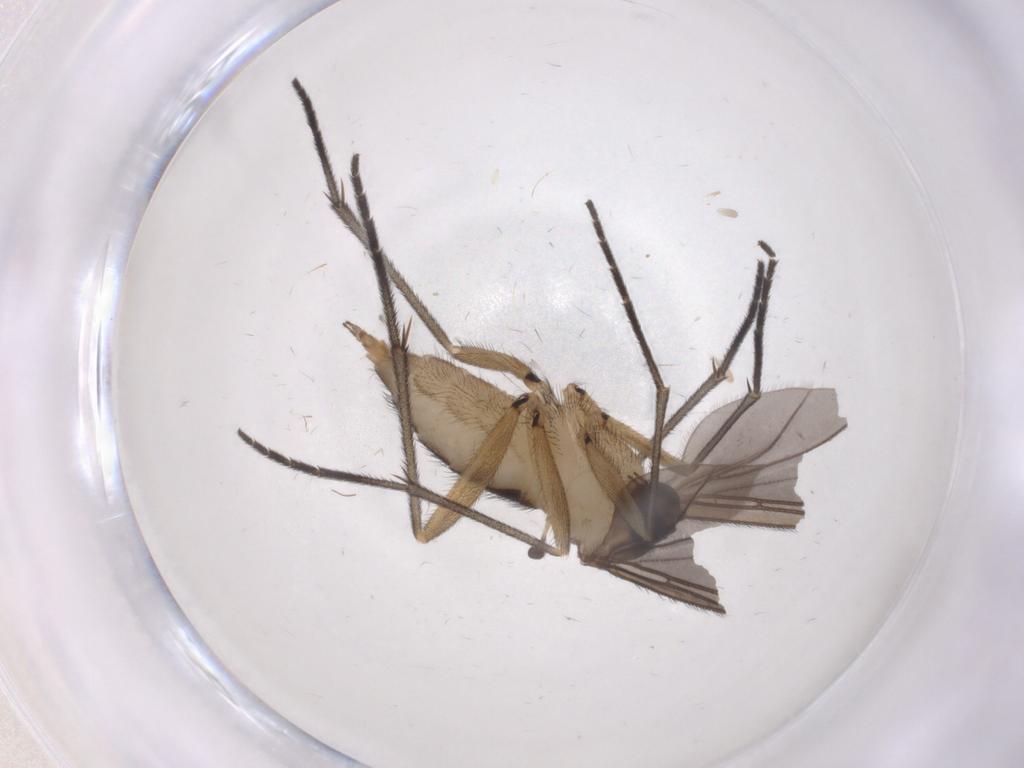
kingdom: Animalia
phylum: Arthropoda
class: Insecta
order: Diptera
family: Sciaridae
